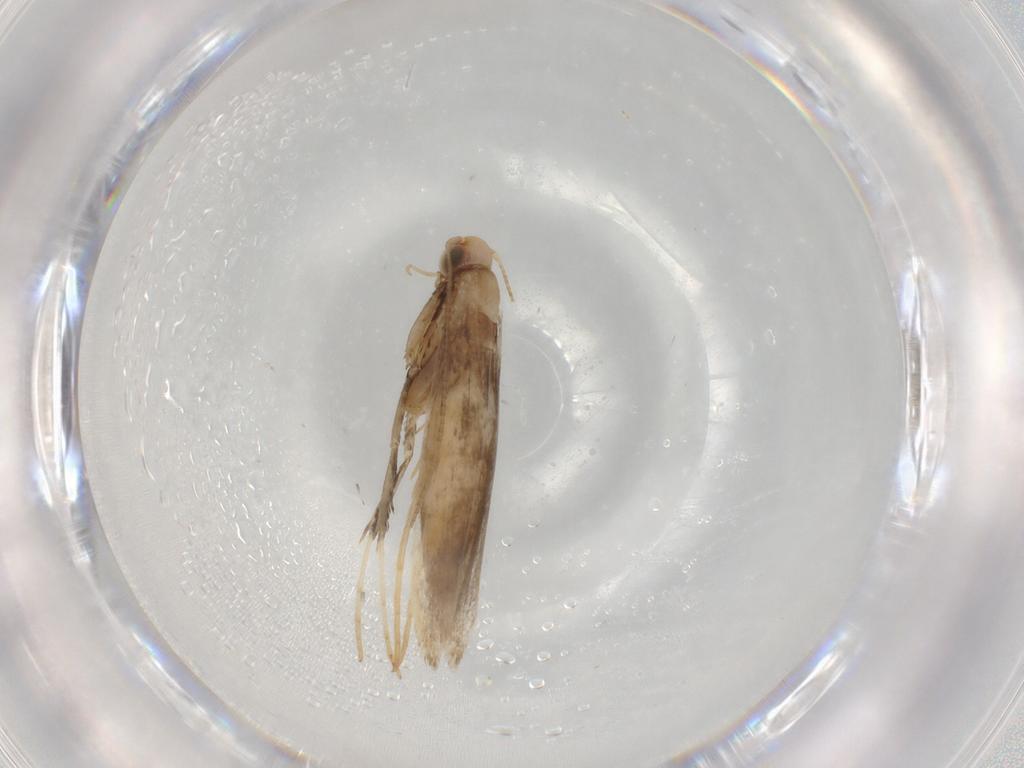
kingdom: Animalia
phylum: Arthropoda
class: Insecta
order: Lepidoptera
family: Gracillariidae
